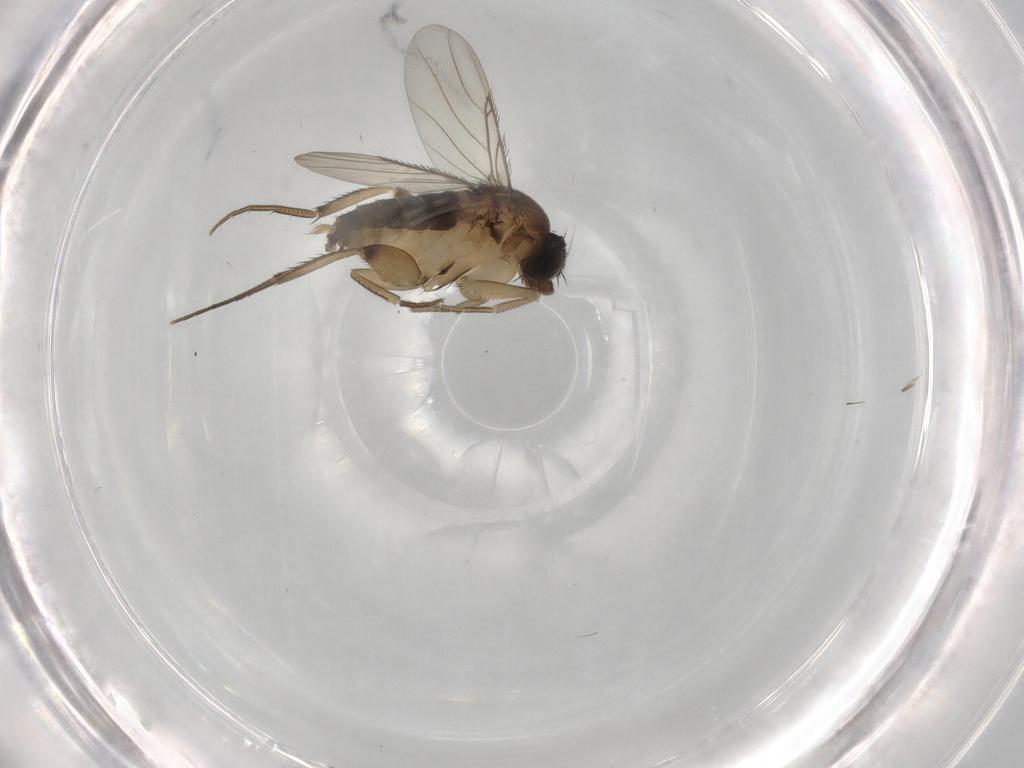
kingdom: Animalia
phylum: Arthropoda
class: Insecta
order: Diptera
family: Phoridae
